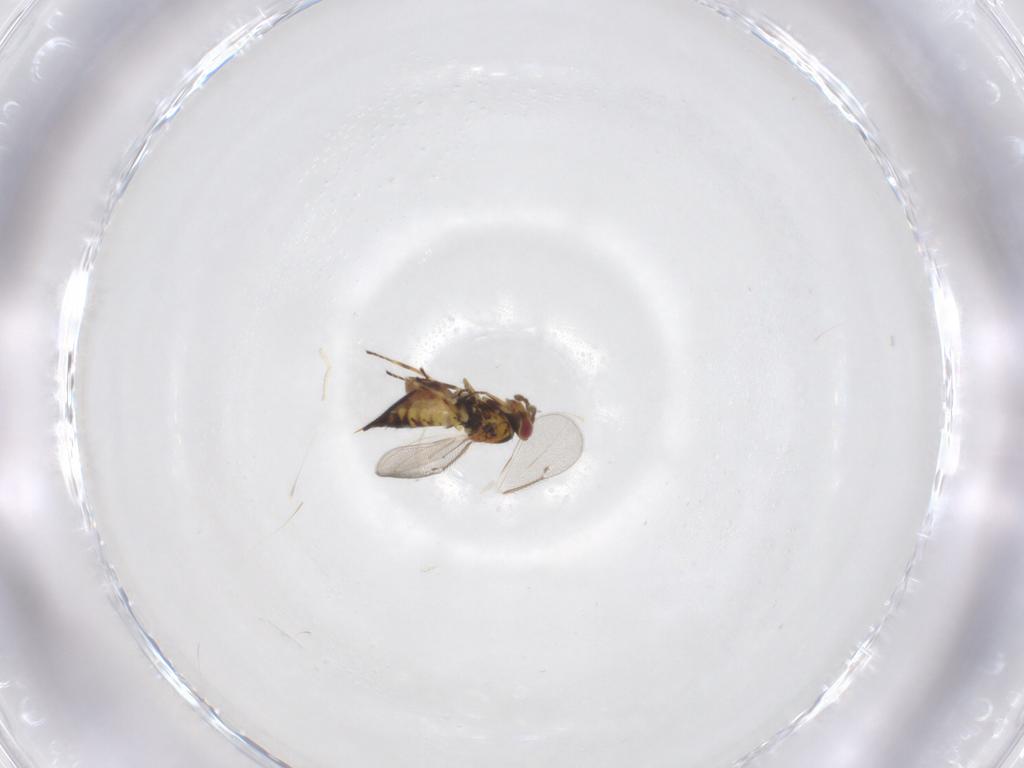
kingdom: Animalia
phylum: Arthropoda
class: Insecta
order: Hymenoptera
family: Eulophidae
